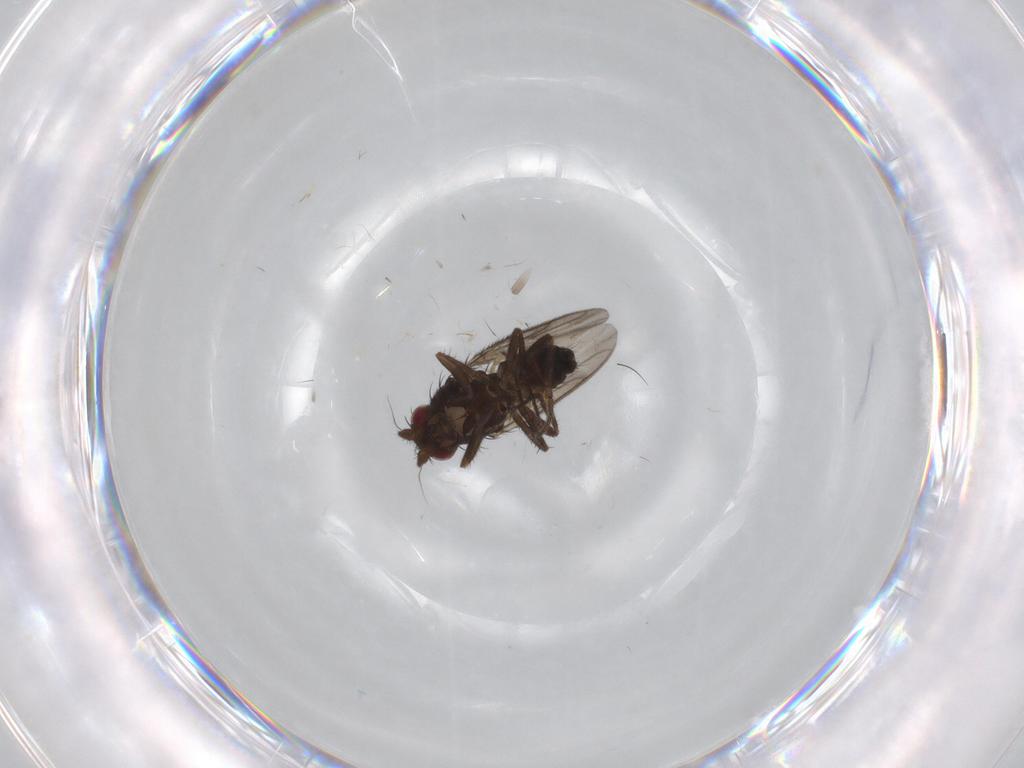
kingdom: Animalia
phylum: Arthropoda
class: Insecta
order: Diptera
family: Sphaeroceridae
